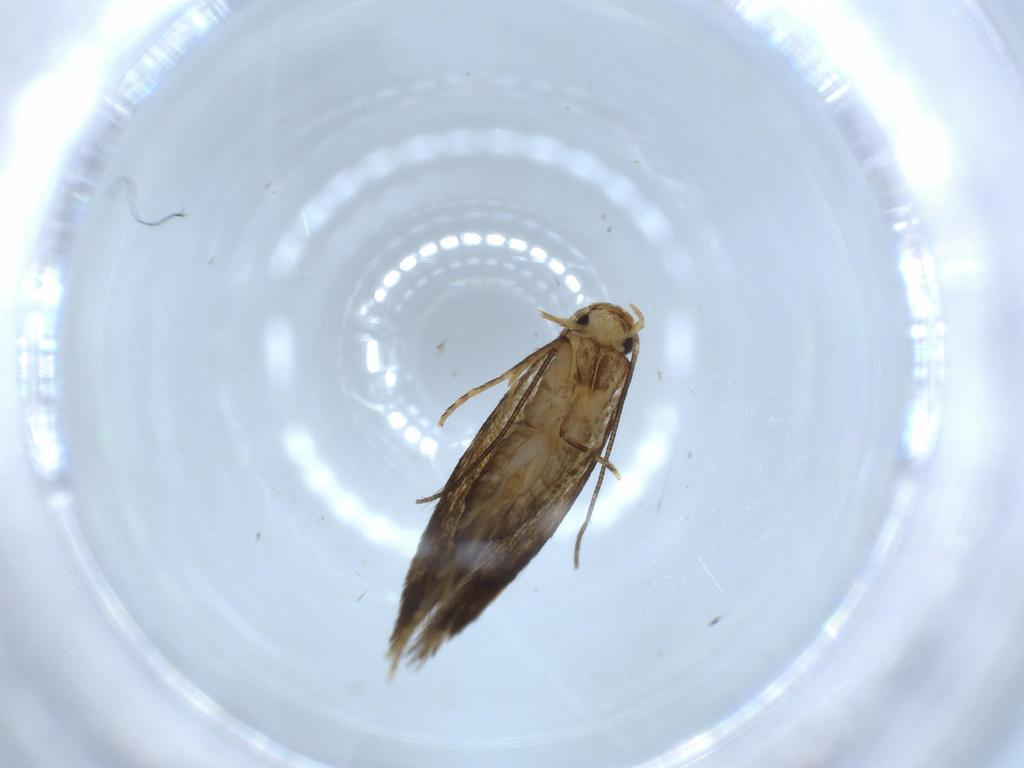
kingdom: Animalia
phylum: Arthropoda
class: Insecta
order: Lepidoptera
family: Tineidae
